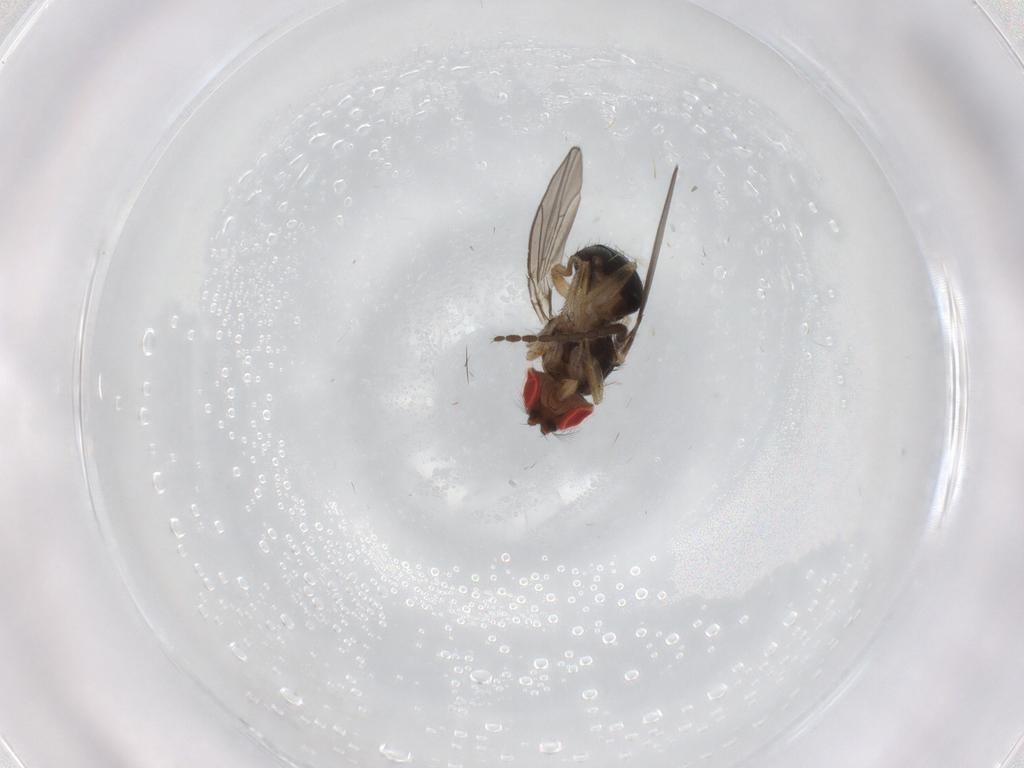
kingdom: Animalia
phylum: Arthropoda
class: Insecta
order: Diptera
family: Drosophilidae
